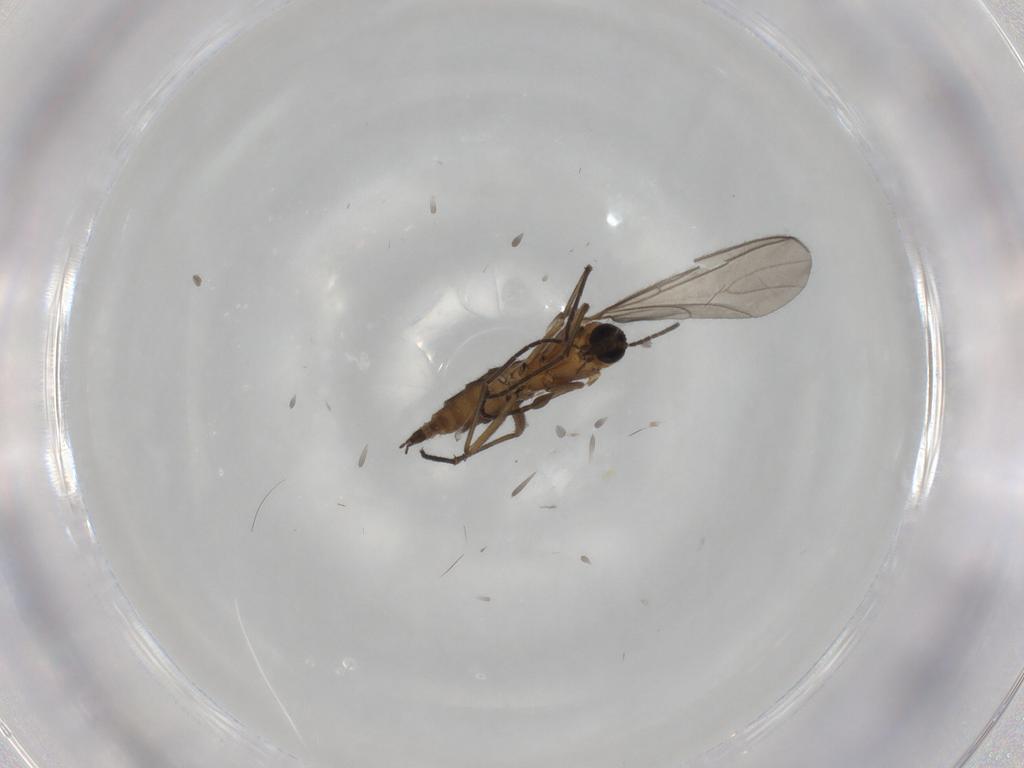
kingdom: Animalia
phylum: Arthropoda
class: Insecta
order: Diptera
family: Sciaridae
